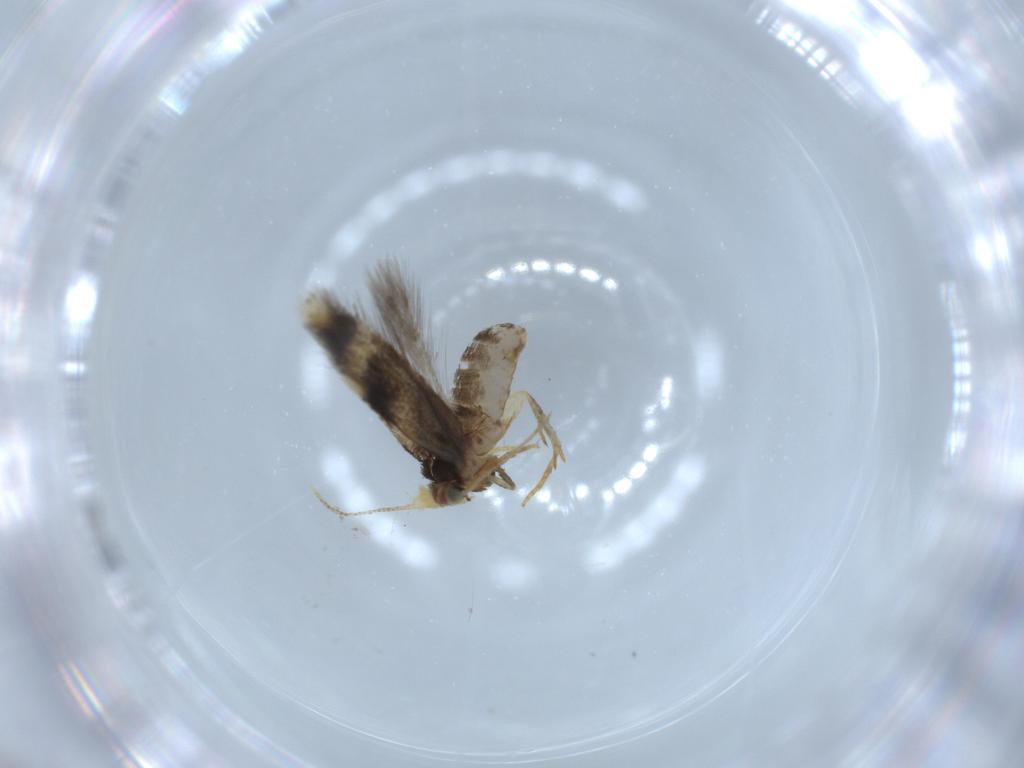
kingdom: Animalia
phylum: Arthropoda
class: Insecta
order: Lepidoptera
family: Nepticulidae
